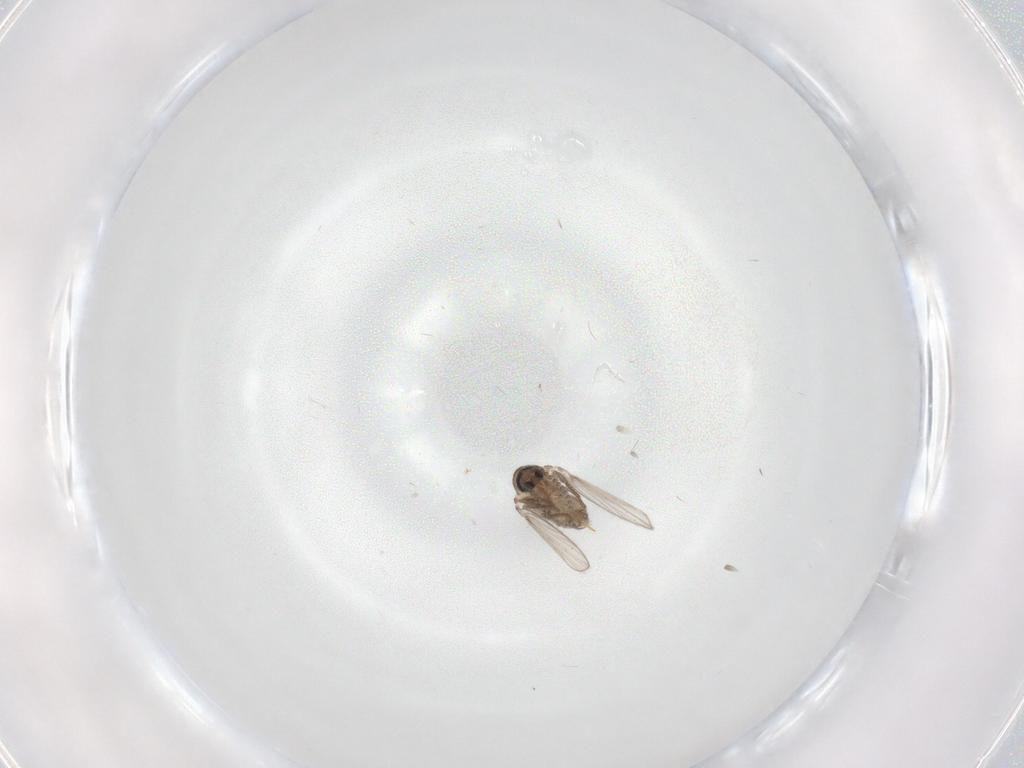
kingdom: Animalia
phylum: Arthropoda
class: Insecta
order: Diptera
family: Psychodidae
